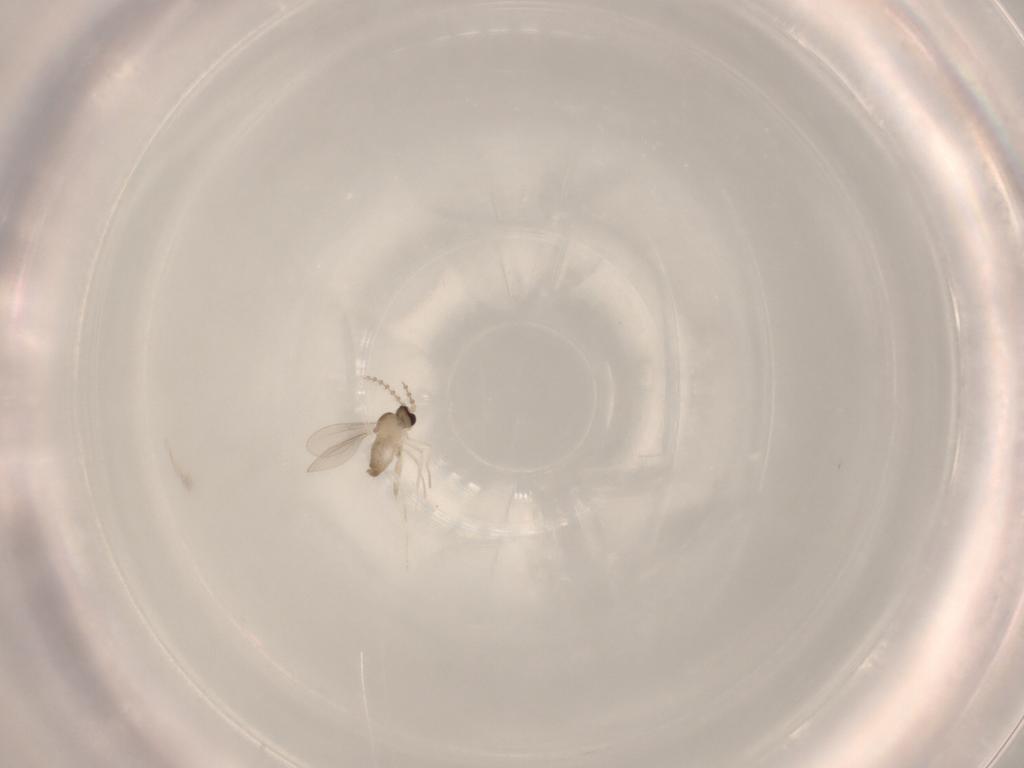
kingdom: Animalia
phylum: Arthropoda
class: Insecta
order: Diptera
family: Cecidomyiidae
